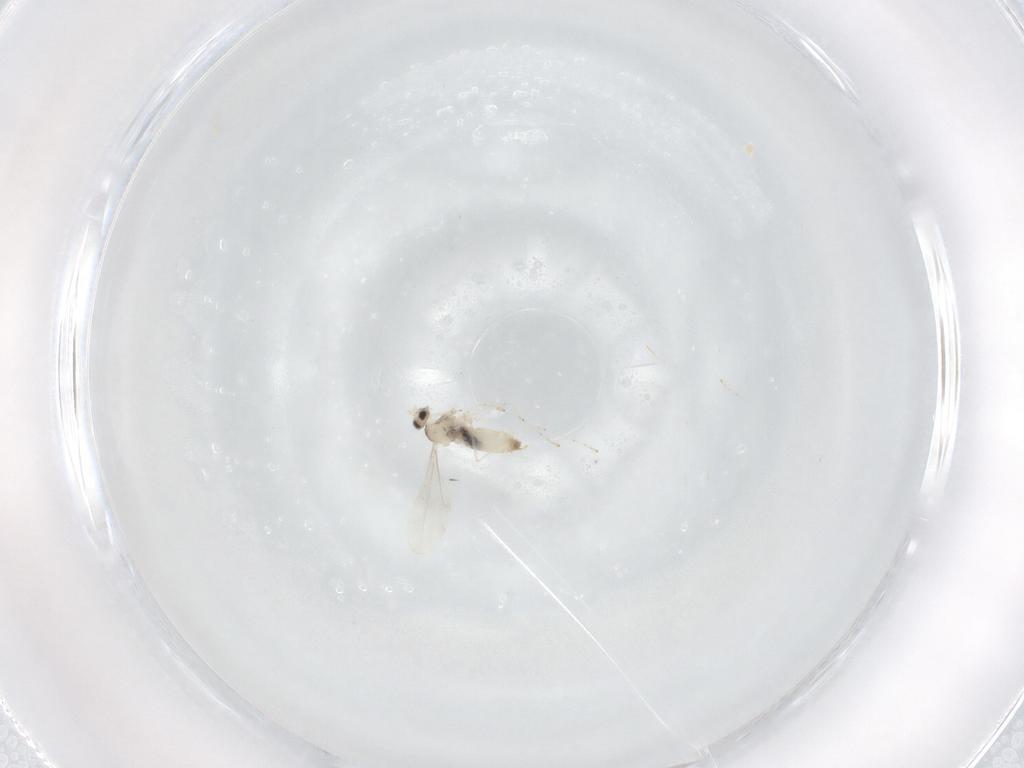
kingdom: Animalia
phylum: Arthropoda
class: Insecta
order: Diptera
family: Cecidomyiidae
